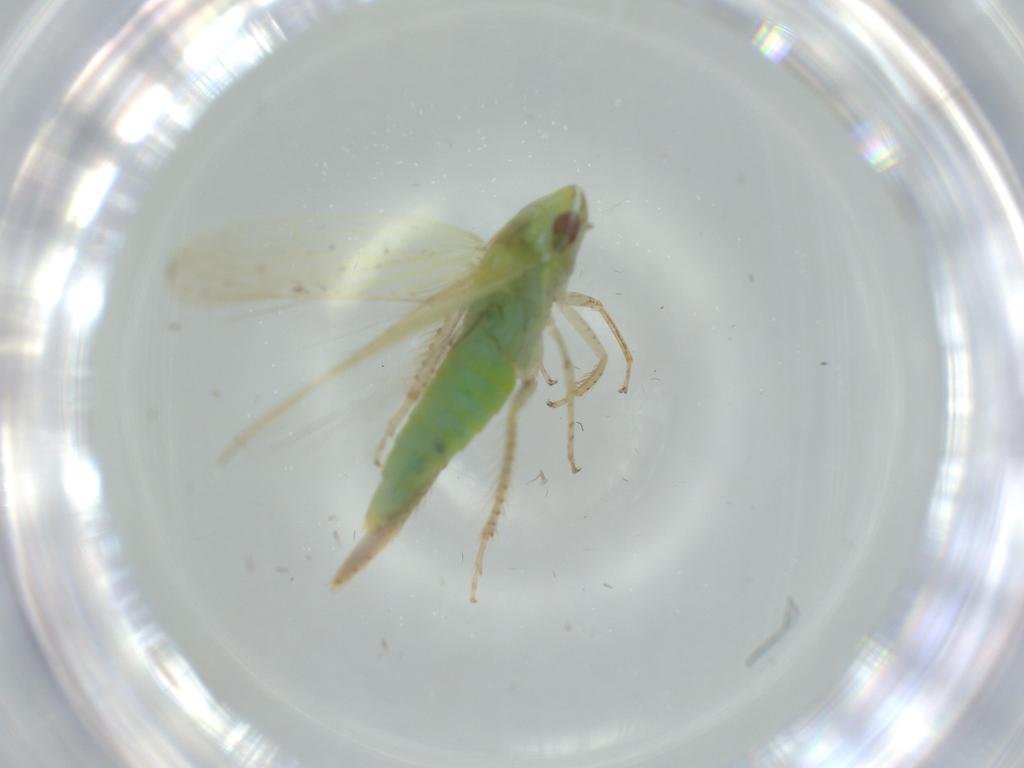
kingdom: Animalia
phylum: Arthropoda
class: Insecta
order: Hemiptera
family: Cicadellidae
